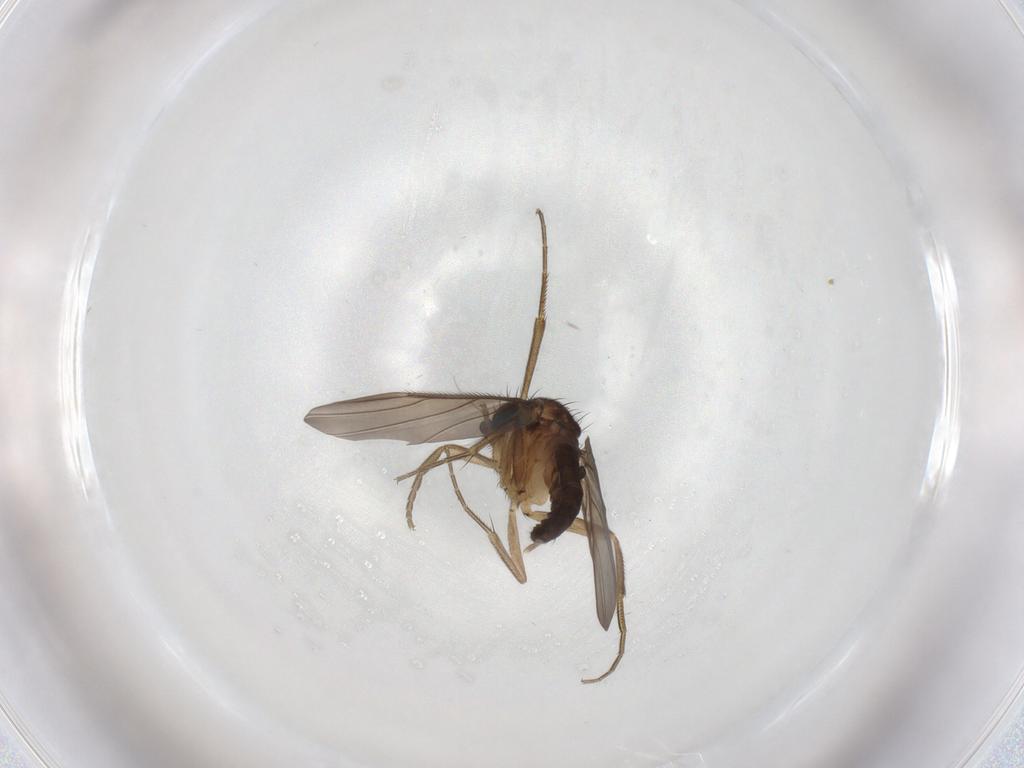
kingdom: Animalia
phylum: Arthropoda
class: Insecta
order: Diptera
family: Phoridae
